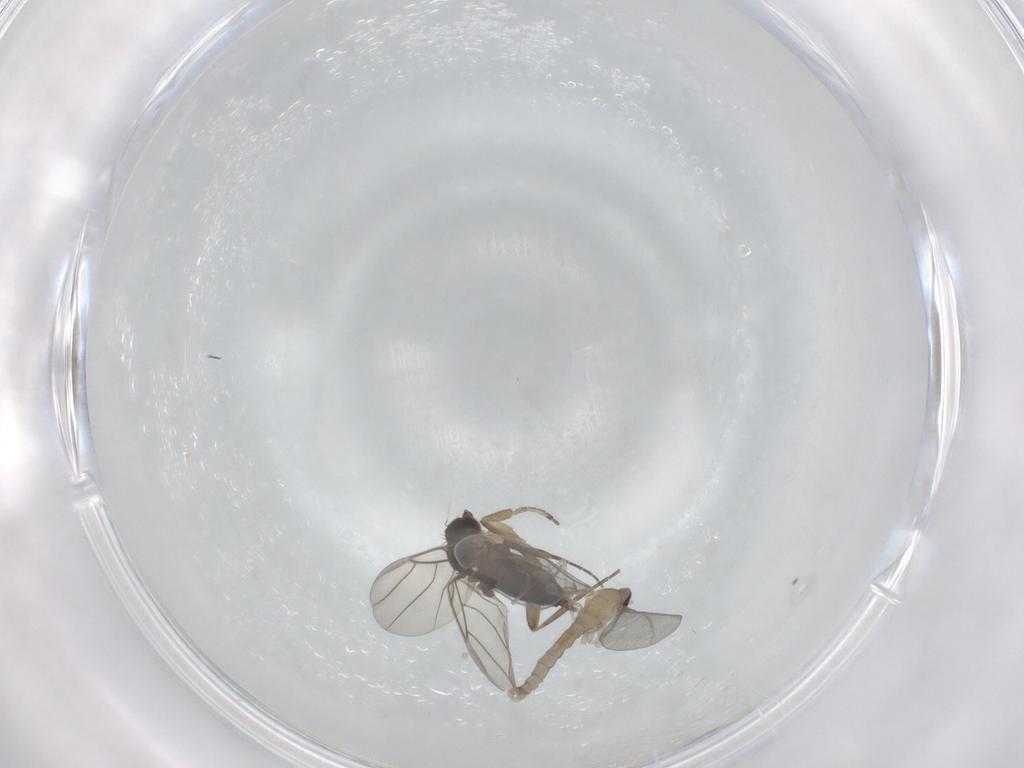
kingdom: Animalia
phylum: Arthropoda
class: Insecta
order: Diptera
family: Cecidomyiidae
